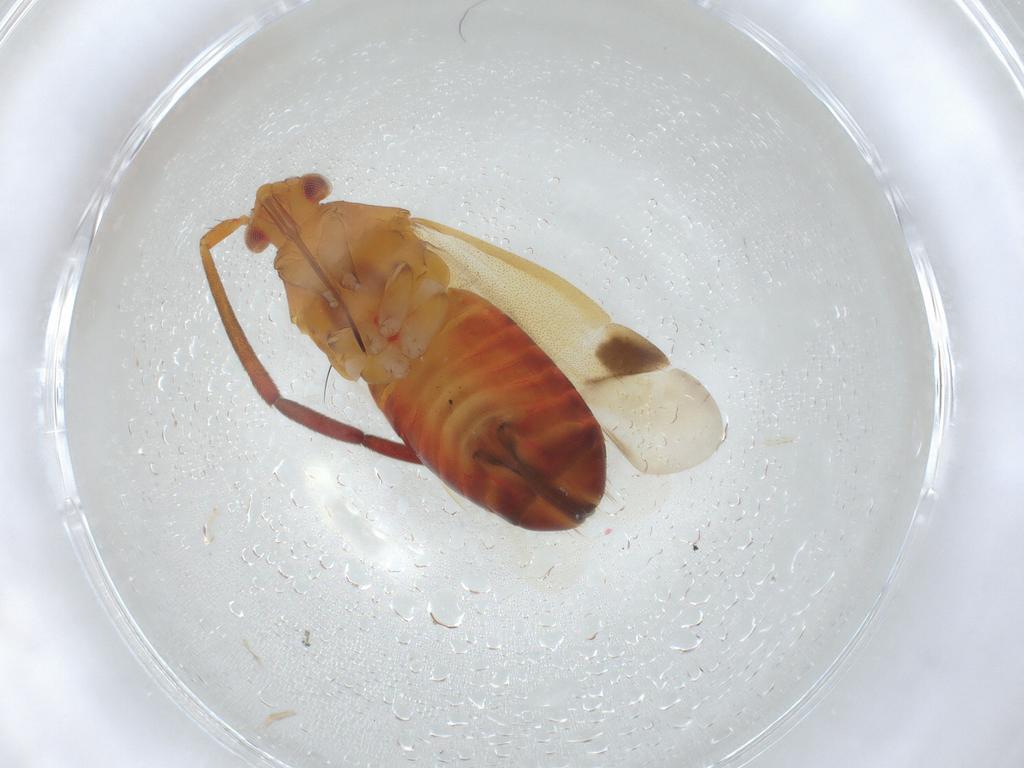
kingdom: Animalia
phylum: Arthropoda
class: Insecta
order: Hemiptera
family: Miridae
